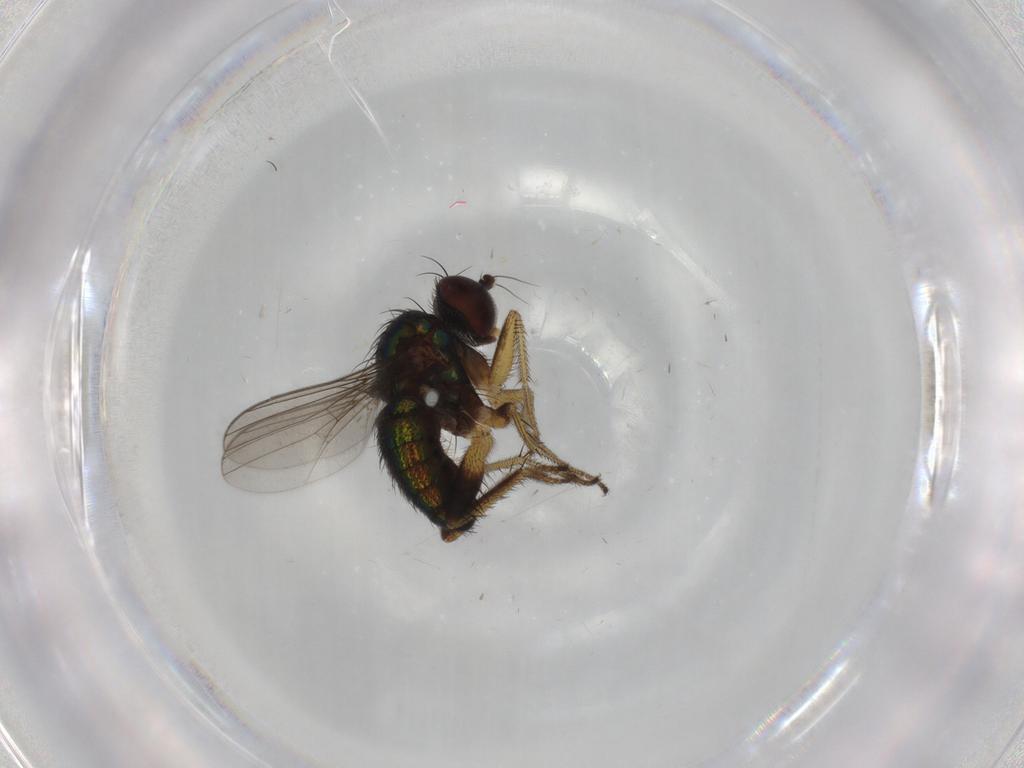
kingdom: Animalia
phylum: Arthropoda
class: Insecta
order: Diptera
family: Dolichopodidae
